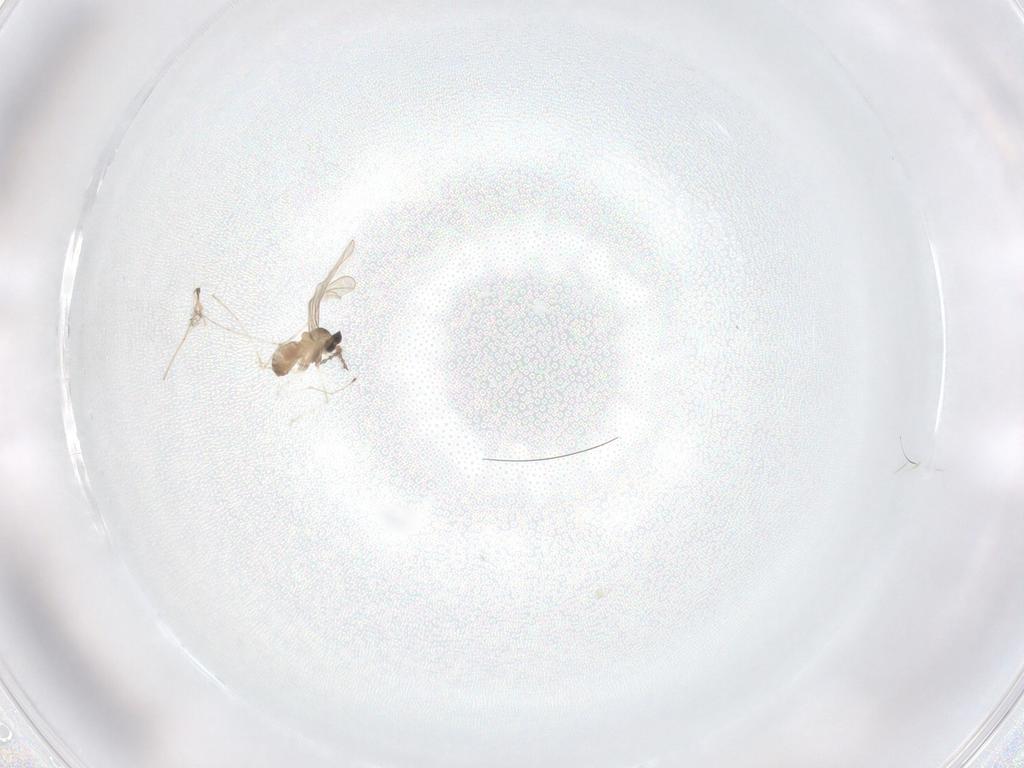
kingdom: Animalia
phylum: Arthropoda
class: Insecta
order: Diptera
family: Cecidomyiidae
